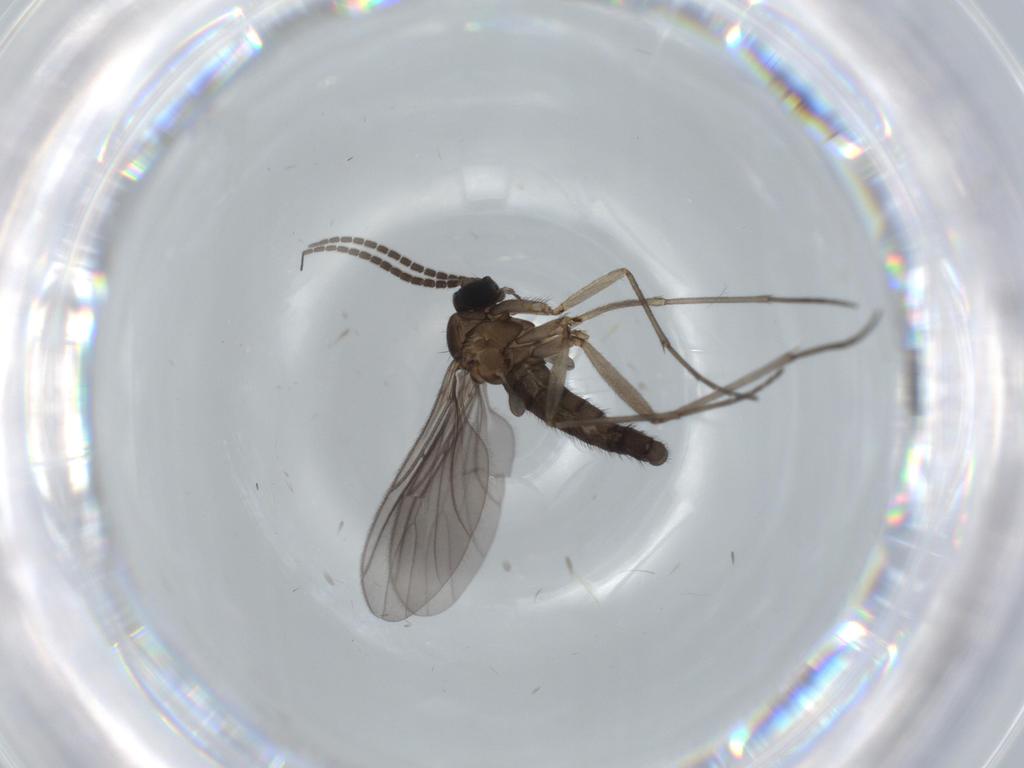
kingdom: Animalia
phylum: Arthropoda
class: Insecta
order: Diptera
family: Sciaridae
